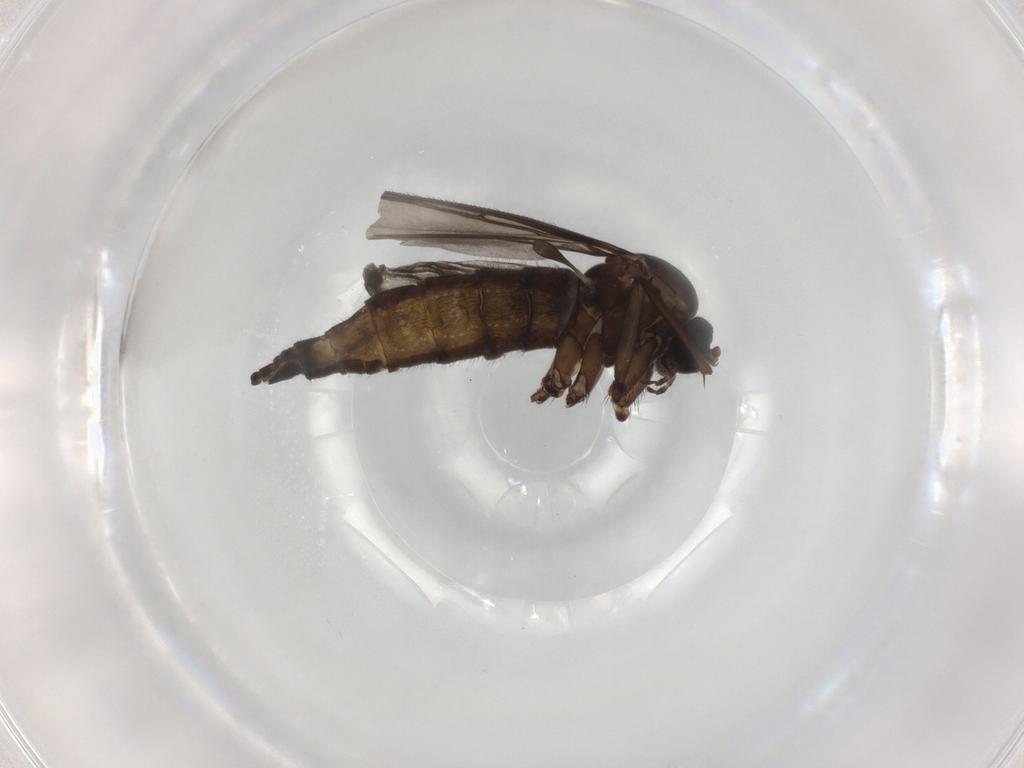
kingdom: Animalia
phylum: Arthropoda
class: Insecta
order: Diptera
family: Sciaridae
